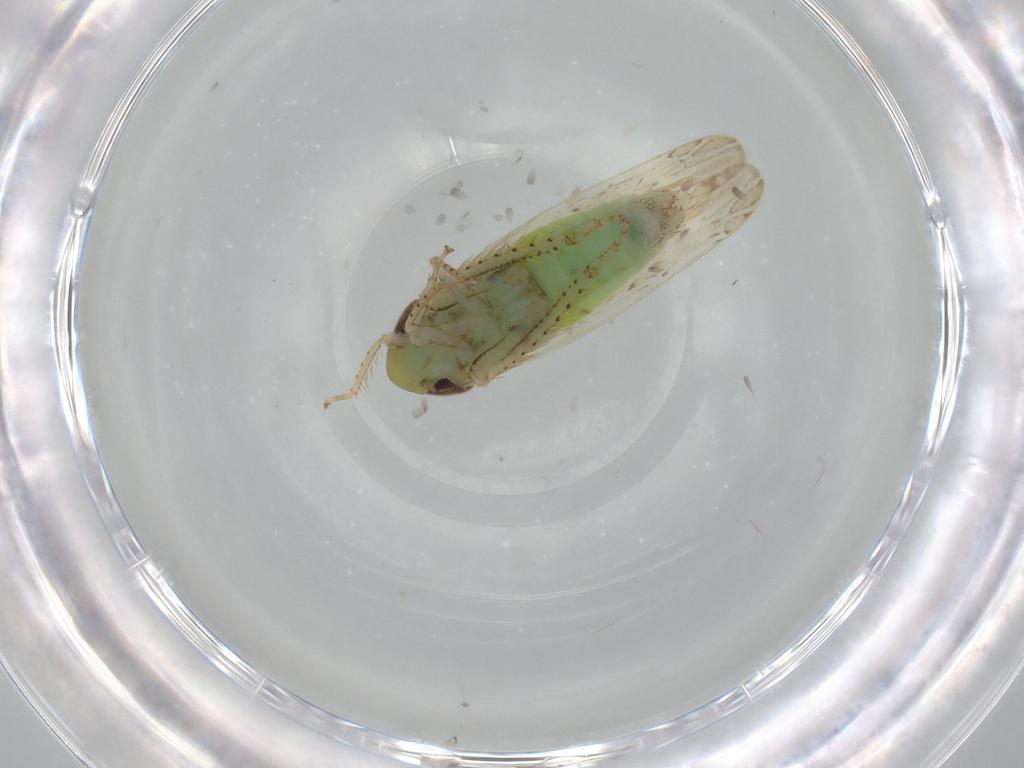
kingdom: Animalia
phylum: Arthropoda
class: Insecta
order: Hemiptera
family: Cicadellidae
